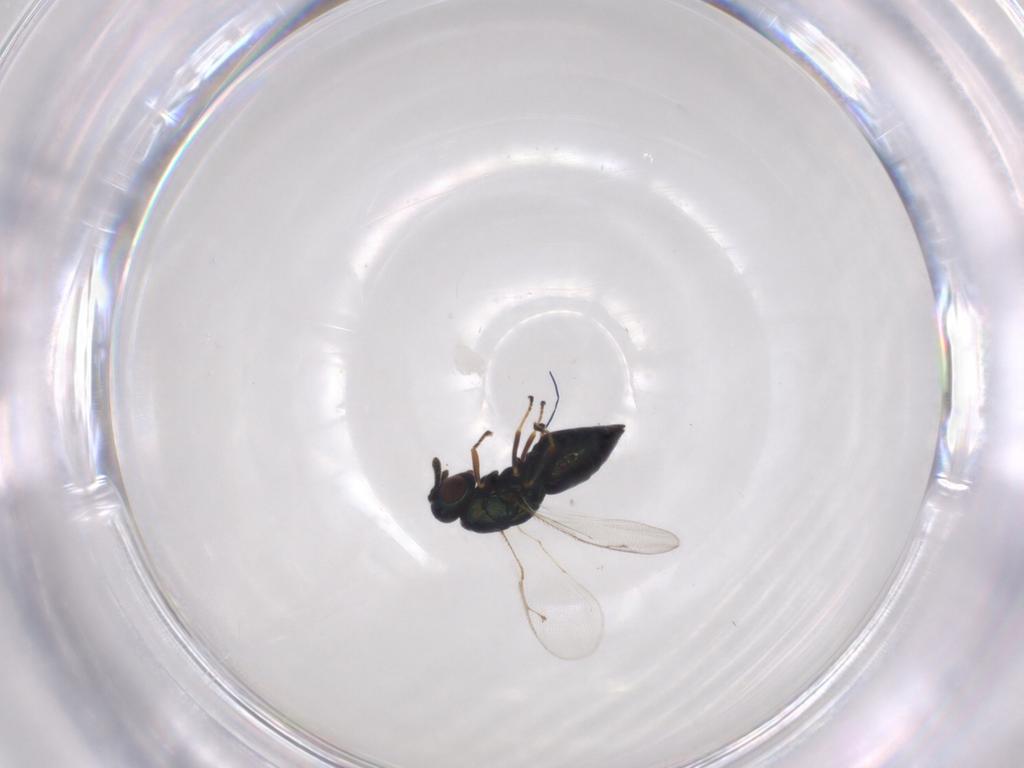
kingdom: Animalia
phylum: Arthropoda
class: Insecta
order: Hymenoptera
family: Pteromalidae
